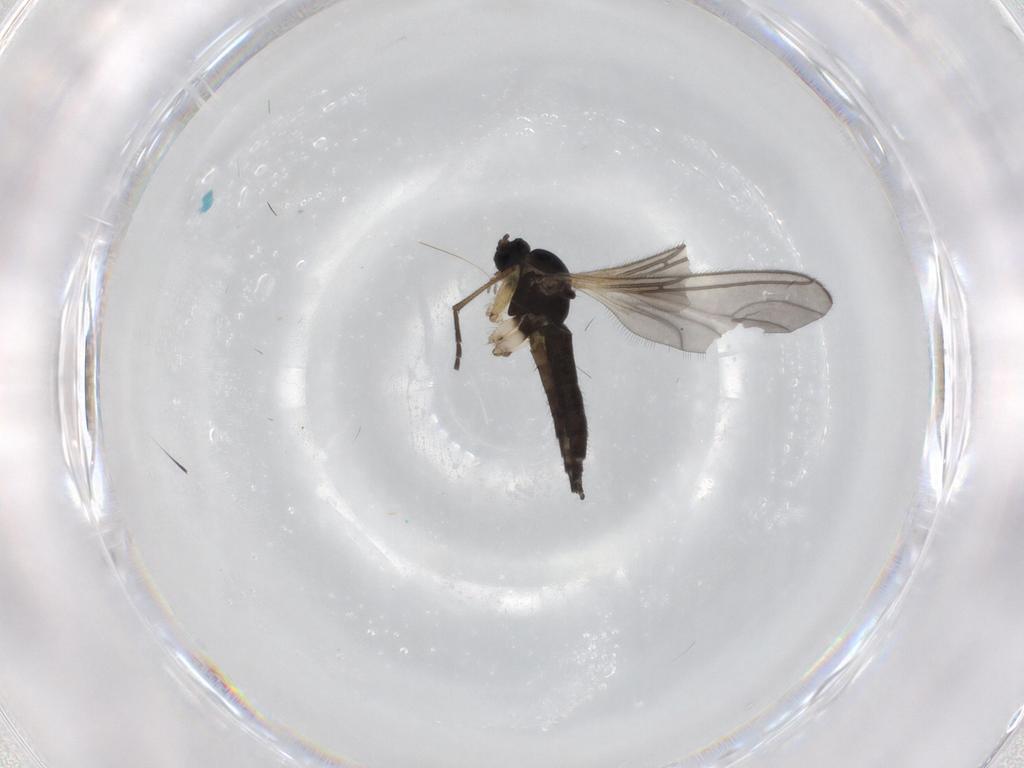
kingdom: Animalia
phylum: Arthropoda
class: Insecta
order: Diptera
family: Sciaridae
